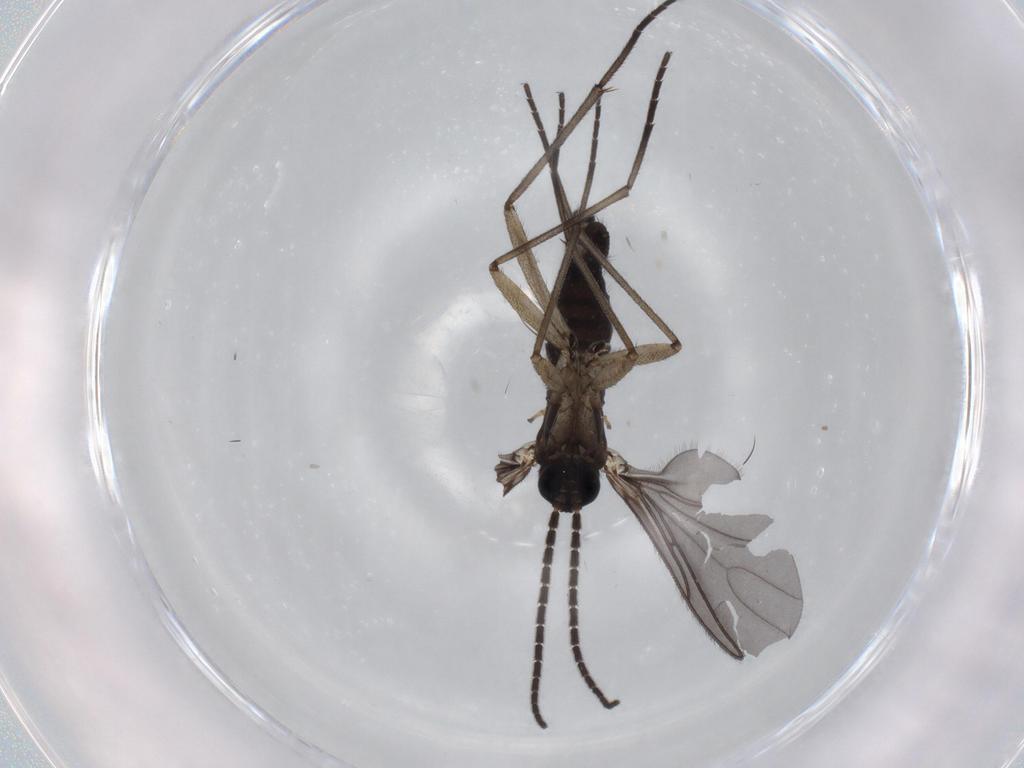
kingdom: Animalia
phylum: Arthropoda
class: Insecta
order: Diptera
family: Sciaridae
